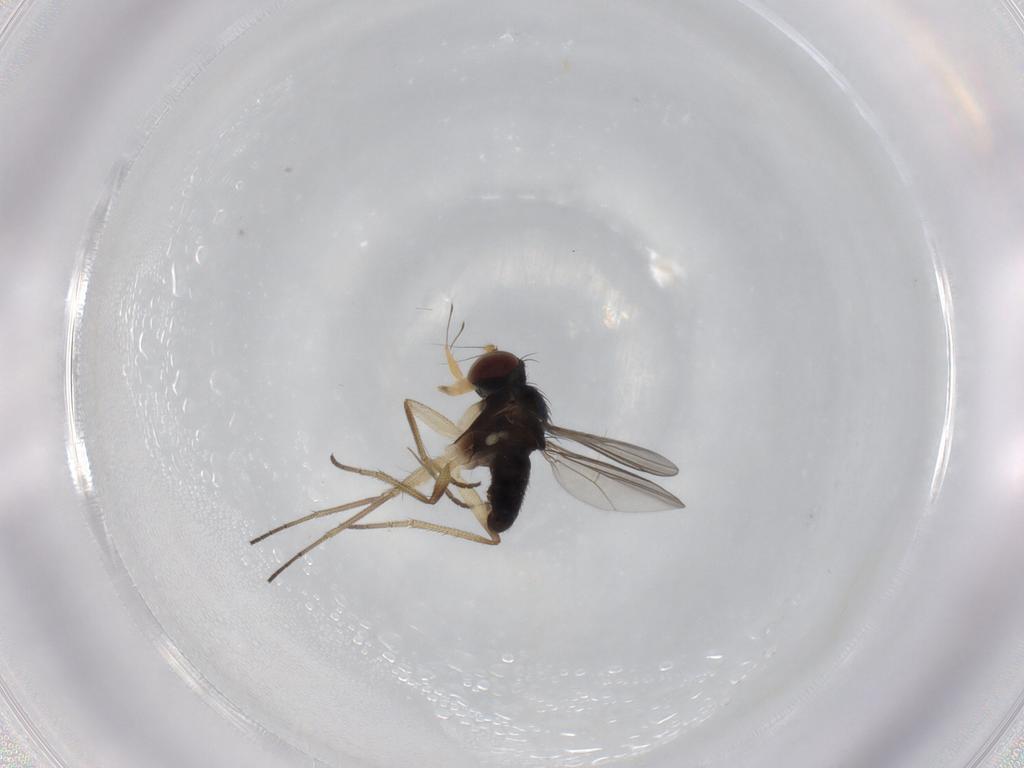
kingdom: Animalia
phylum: Arthropoda
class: Insecta
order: Diptera
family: Dolichopodidae
